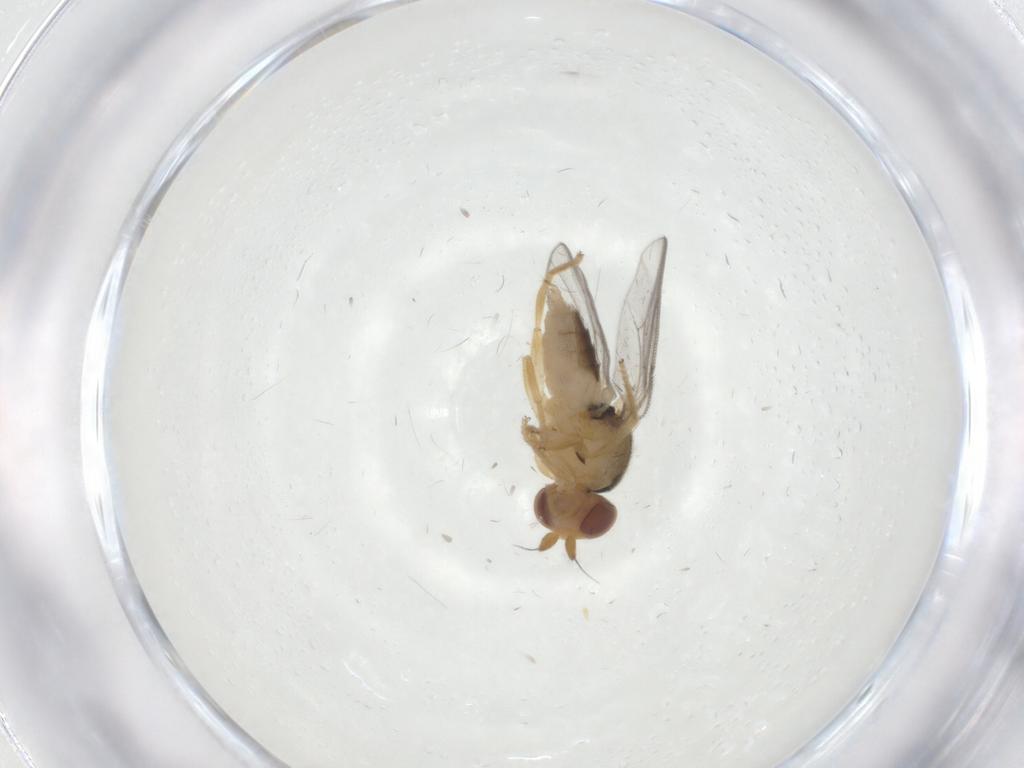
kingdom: Animalia
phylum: Arthropoda
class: Insecta
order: Diptera
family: Chloropidae
